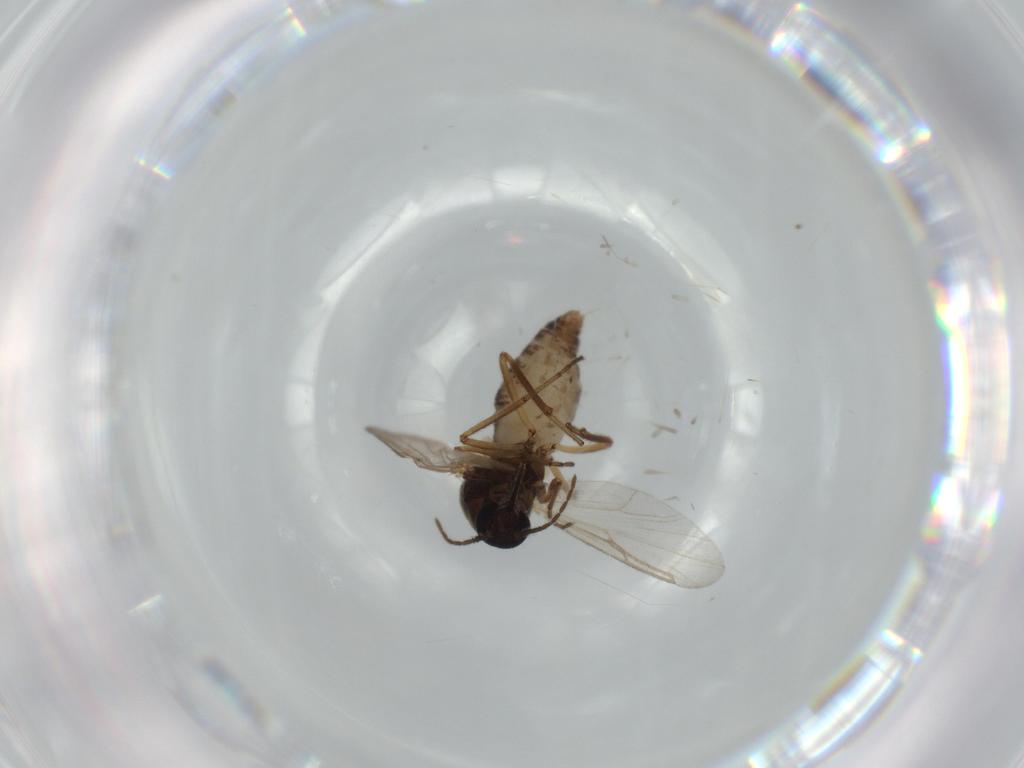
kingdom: Animalia
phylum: Arthropoda
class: Insecta
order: Diptera
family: Ceratopogonidae
